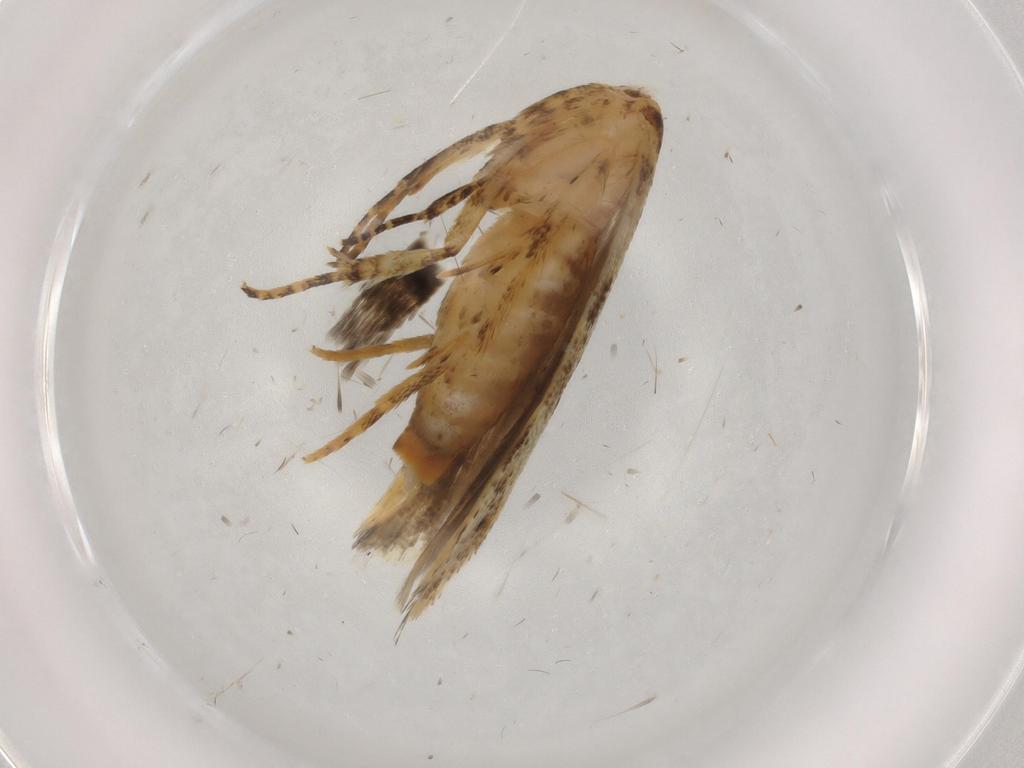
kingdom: Animalia
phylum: Arthropoda
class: Insecta
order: Lepidoptera
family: Gelechiidae
